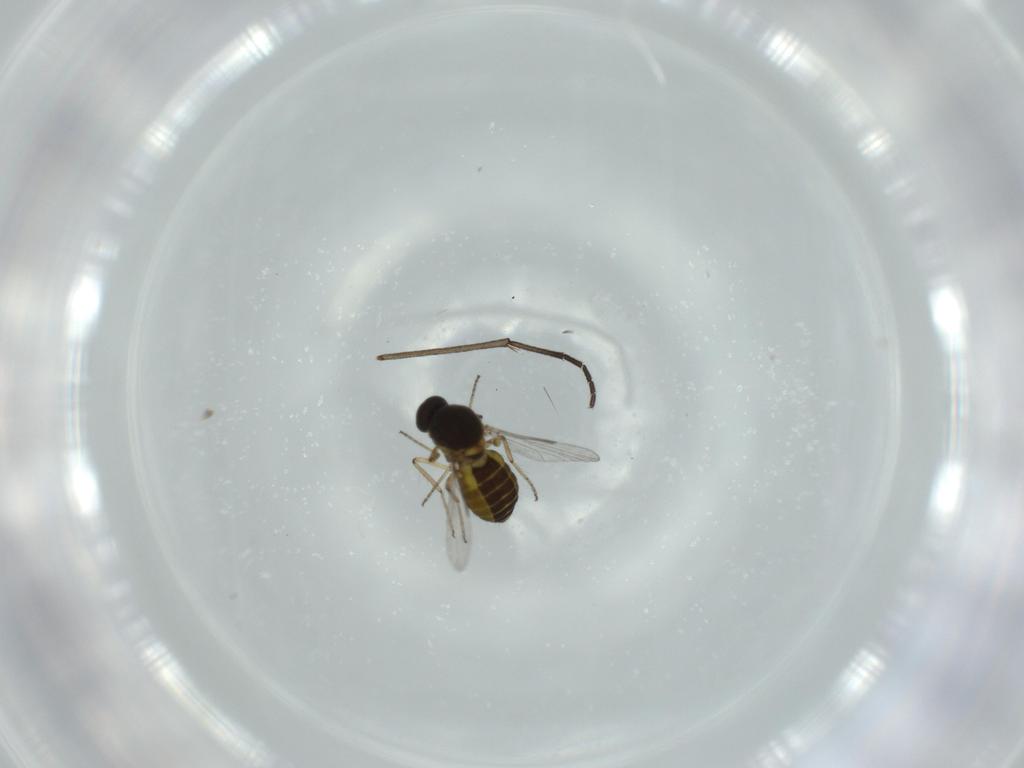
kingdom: Animalia
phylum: Arthropoda
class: Insecta
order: Diptera
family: Ceratopogonidae
